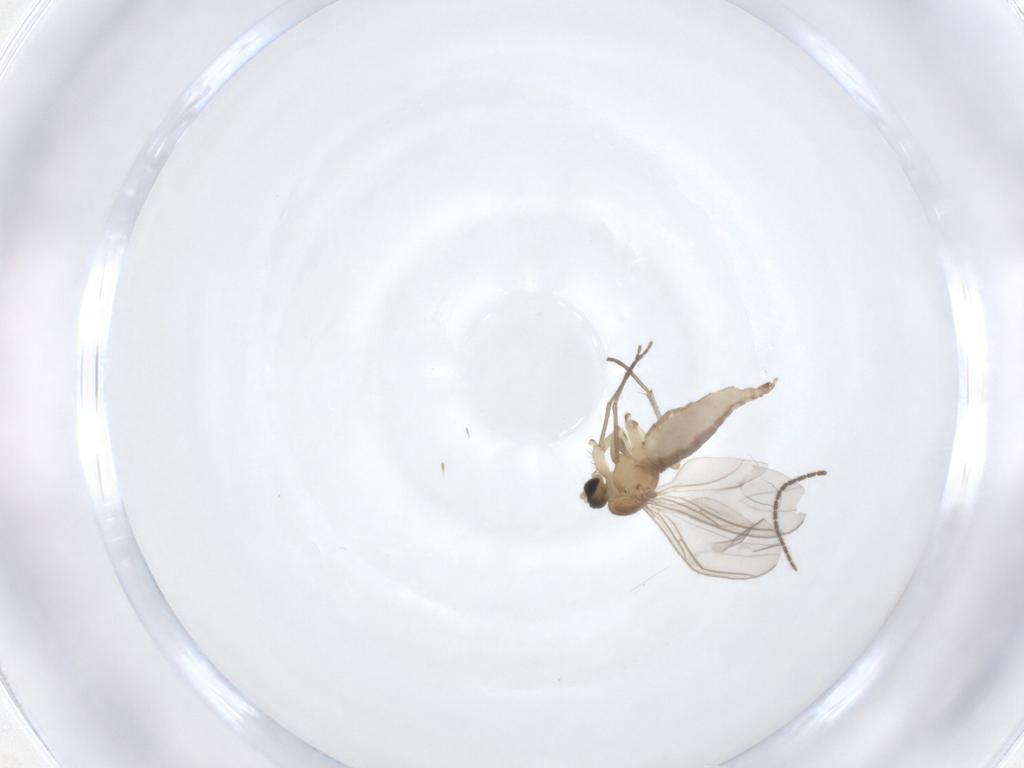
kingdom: Animalia
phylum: Arthropoda
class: Insecta
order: Diptera
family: Sciaridae
